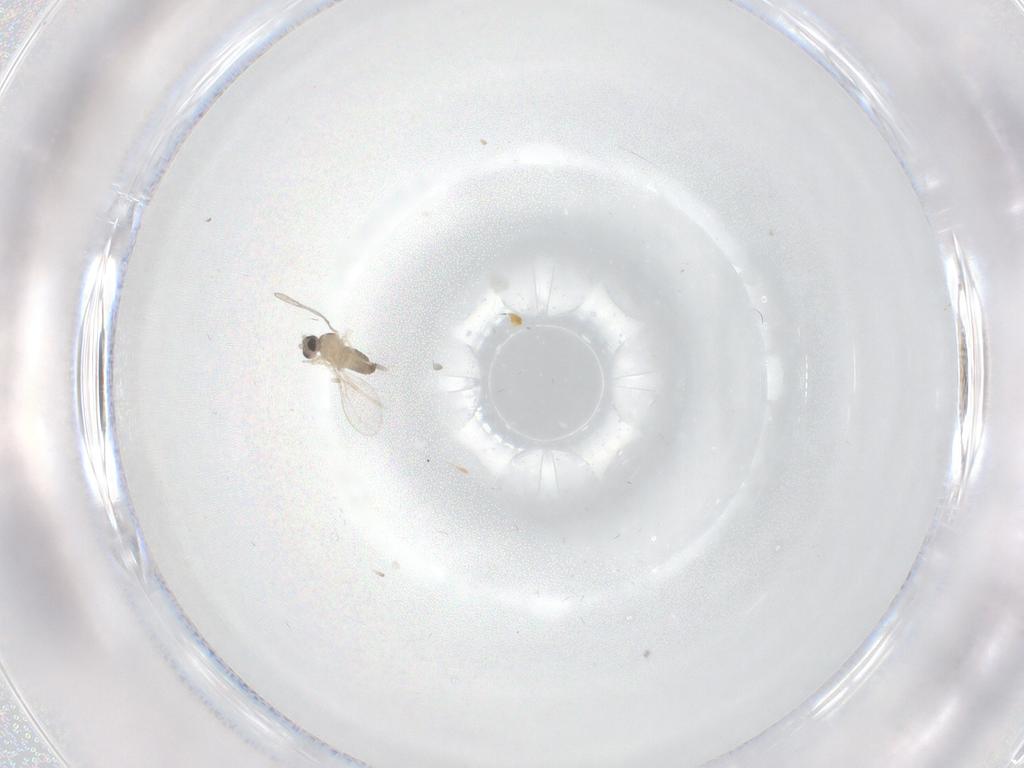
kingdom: Animalia
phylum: Arthropoda
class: Insecta
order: Diptera
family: Cecidomyiidae
